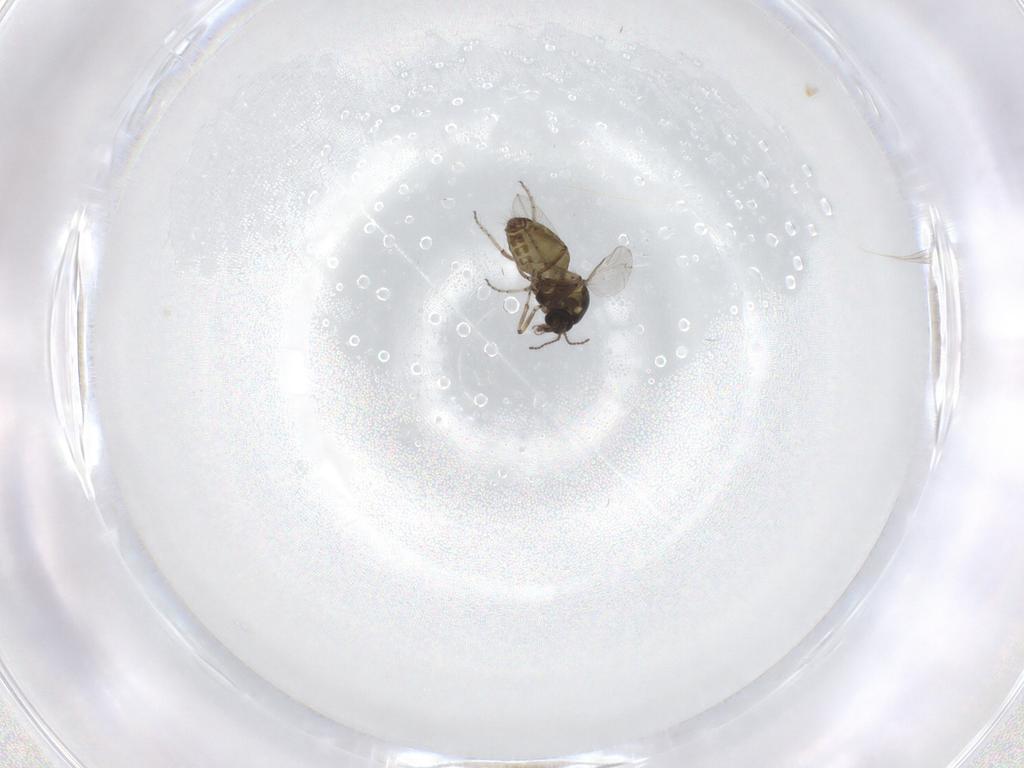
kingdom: Animalia
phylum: Arthropoda
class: Insecta
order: Diptera
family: Ceratopogonidae
